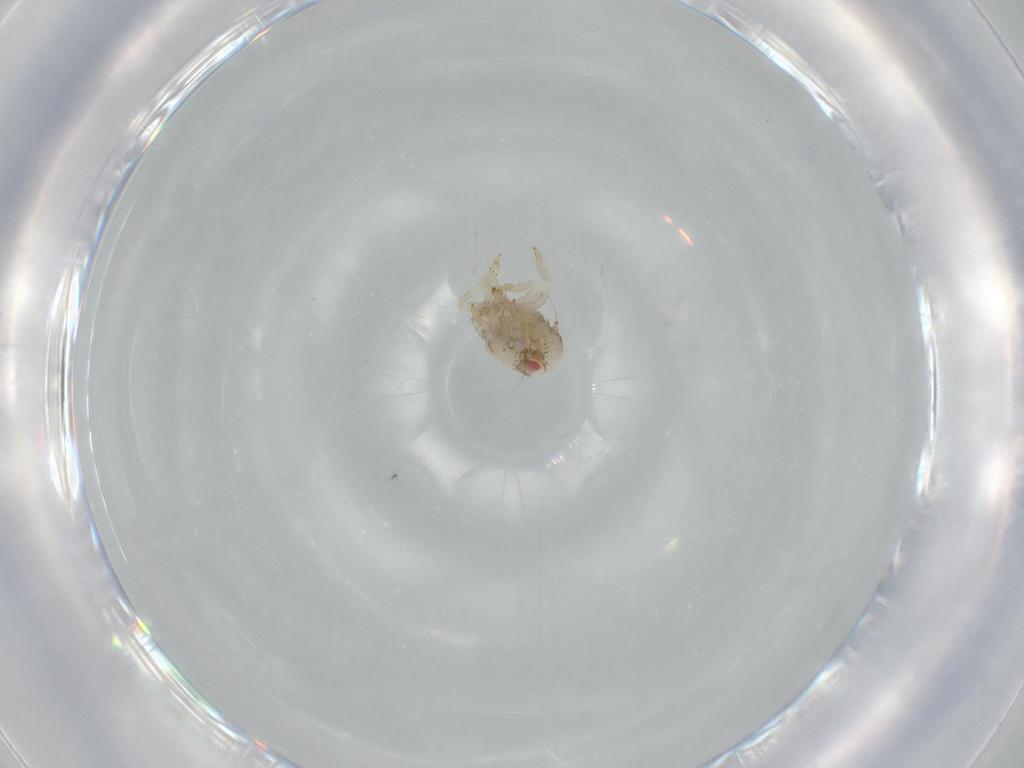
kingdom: Animalia
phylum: Arthropoda
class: Insecta
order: Hemiptera
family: Acanaloniidae
